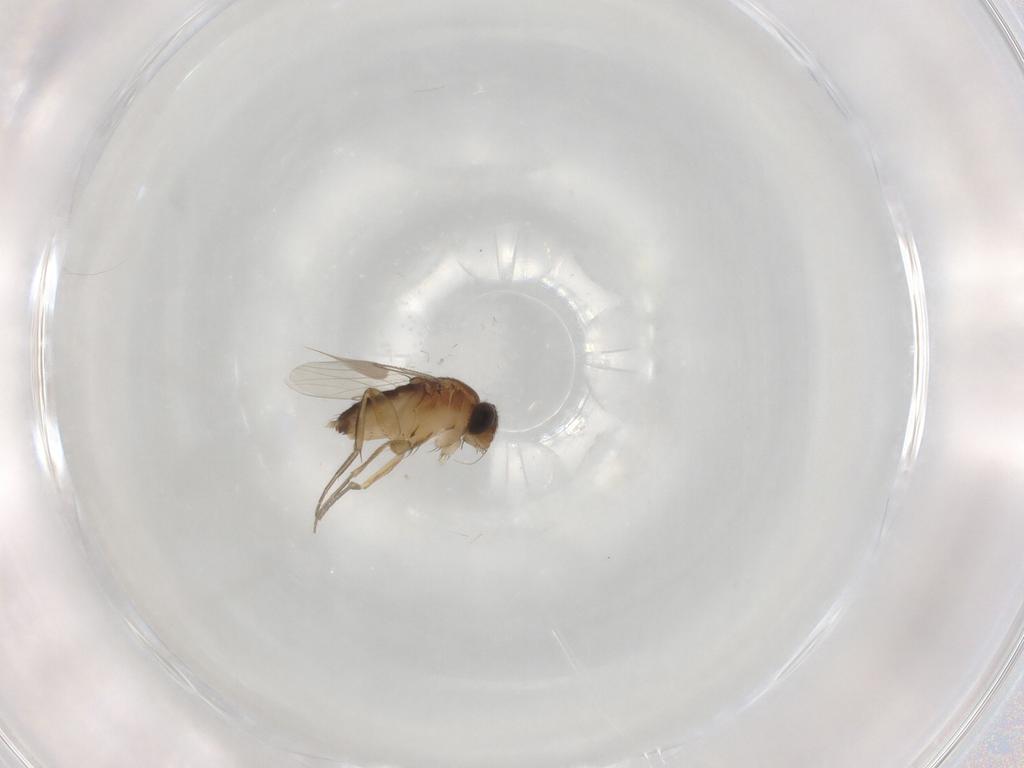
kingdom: Animalia
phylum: Arthropoda
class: Insecta
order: Diptera
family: Phoridae
